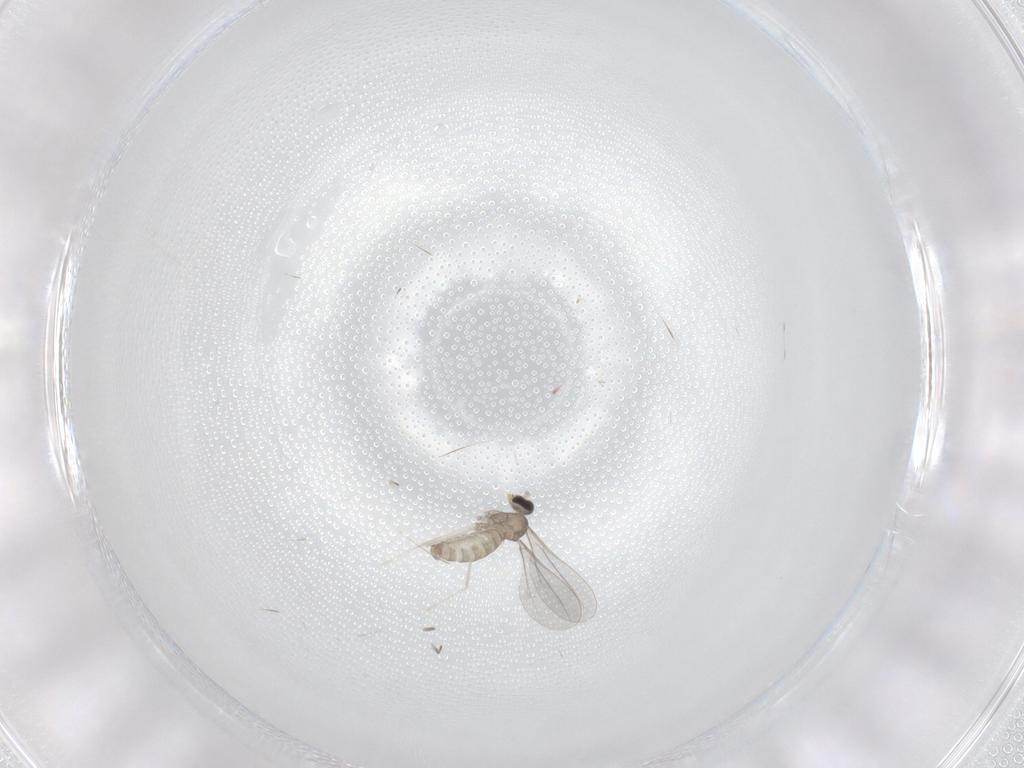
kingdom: Animalia
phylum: Arthropoda
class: Insecta
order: Diptera
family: Cecidomyiidae
